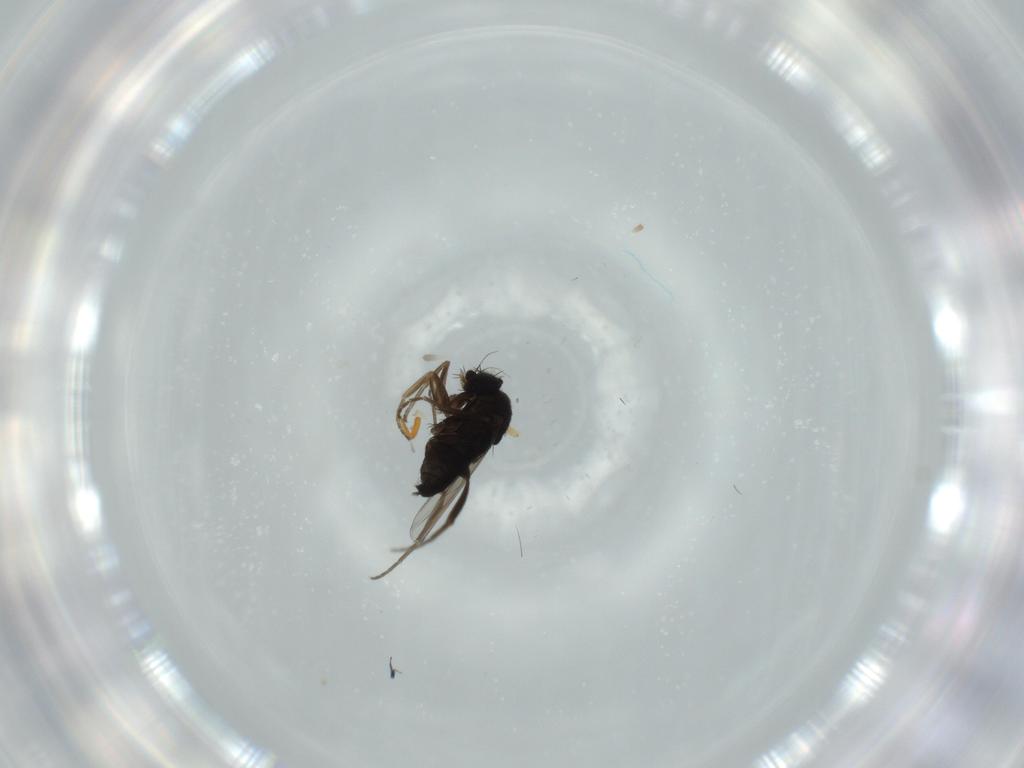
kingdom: Animalia
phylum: Arthropoda
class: Insecta
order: Diptera
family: Phoridae
